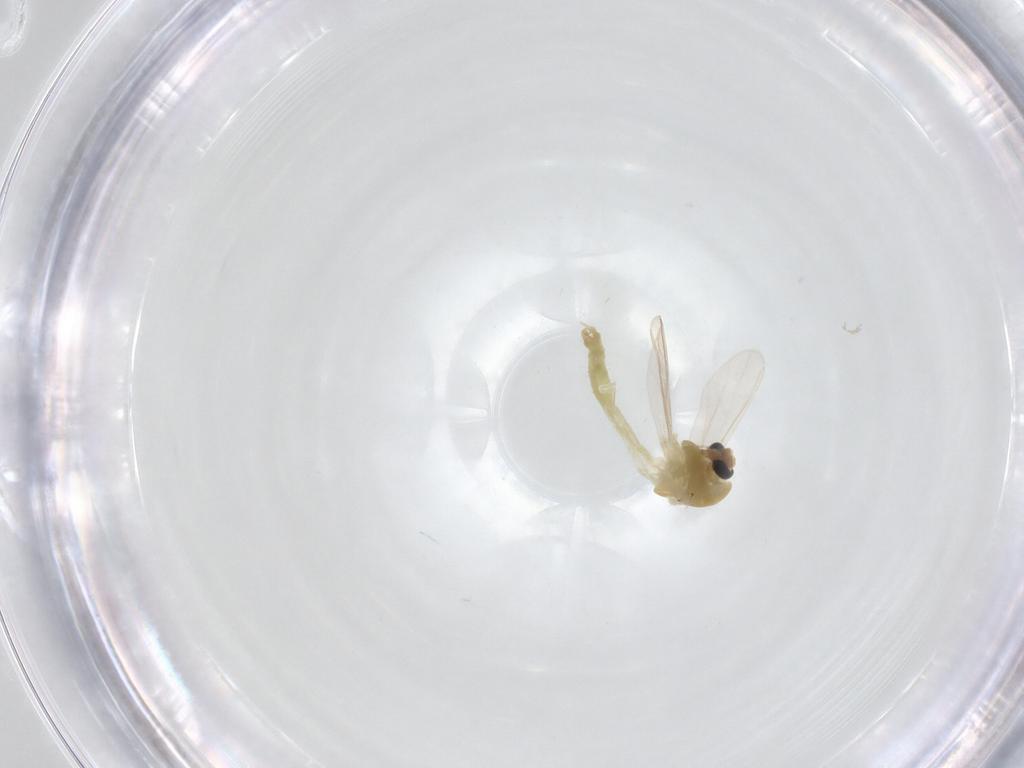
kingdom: Animalia
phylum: Arthropoda
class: Insecta
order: Diptera
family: Chironomidae
